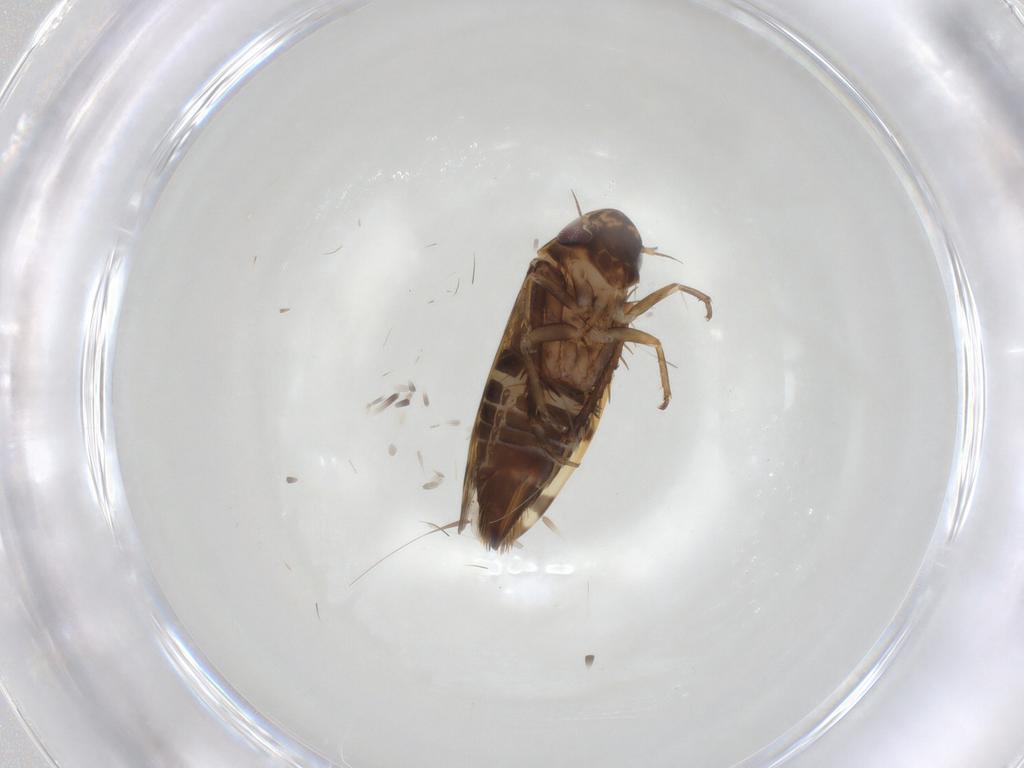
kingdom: Animalia
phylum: Arthropoda
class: Insecta
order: Hemiptera
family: Cicadellidae
